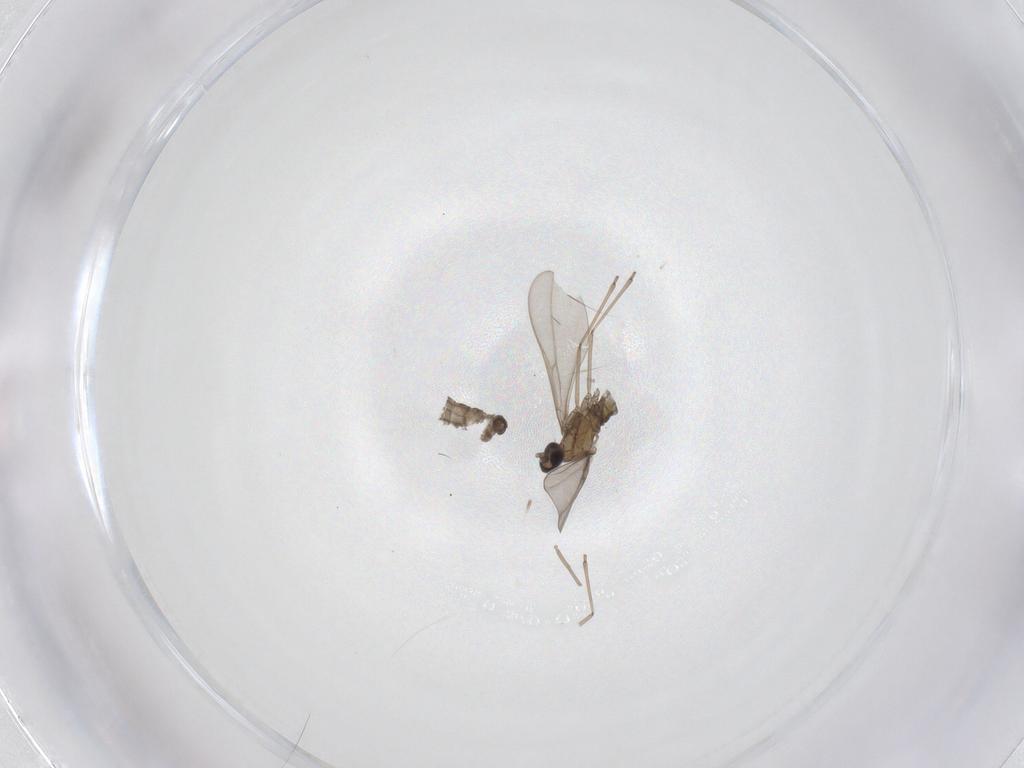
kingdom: Animalia
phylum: Arthropoda
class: Insecta
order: Diptera
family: Cecidomyiidae
